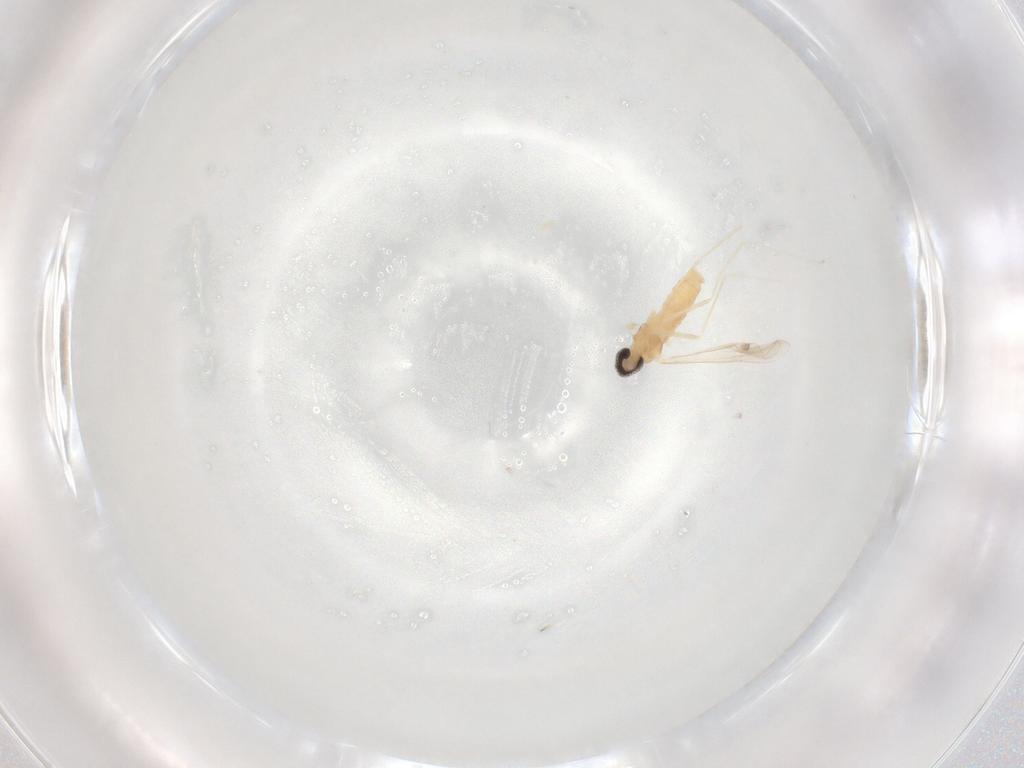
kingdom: Animalia
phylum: Arthropoda
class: Insecta
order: Diptera
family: Cecidomyiidae
